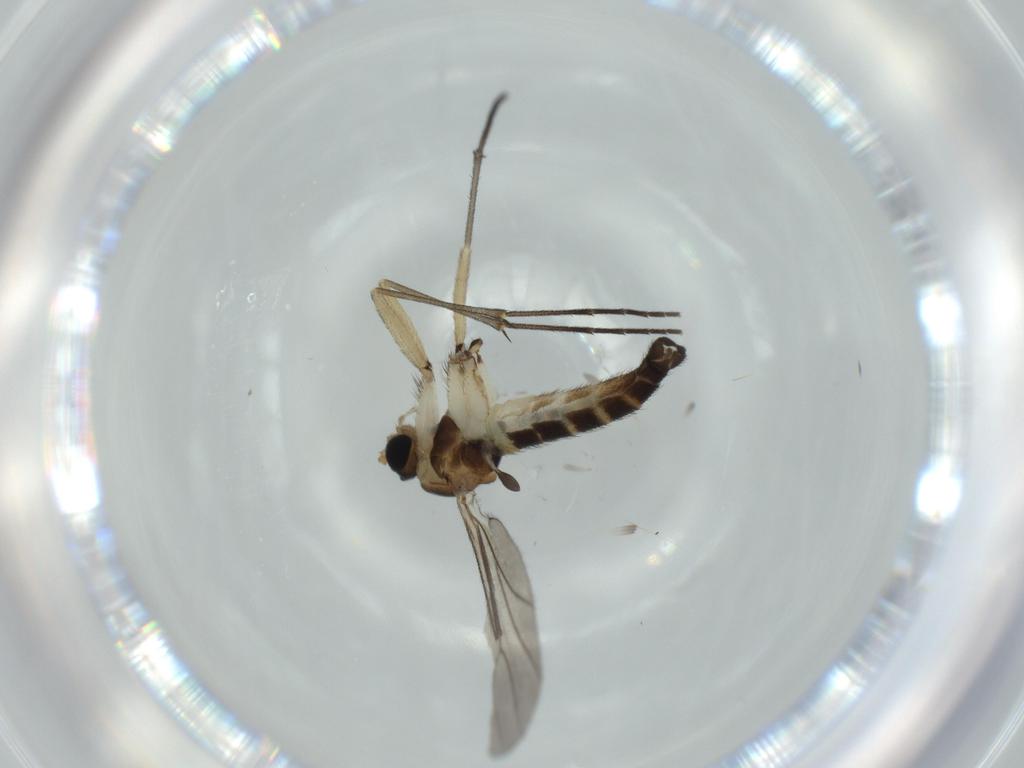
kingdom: Animalia
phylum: Arthropoda
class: Insecta
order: Diptera
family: Sciaridae
